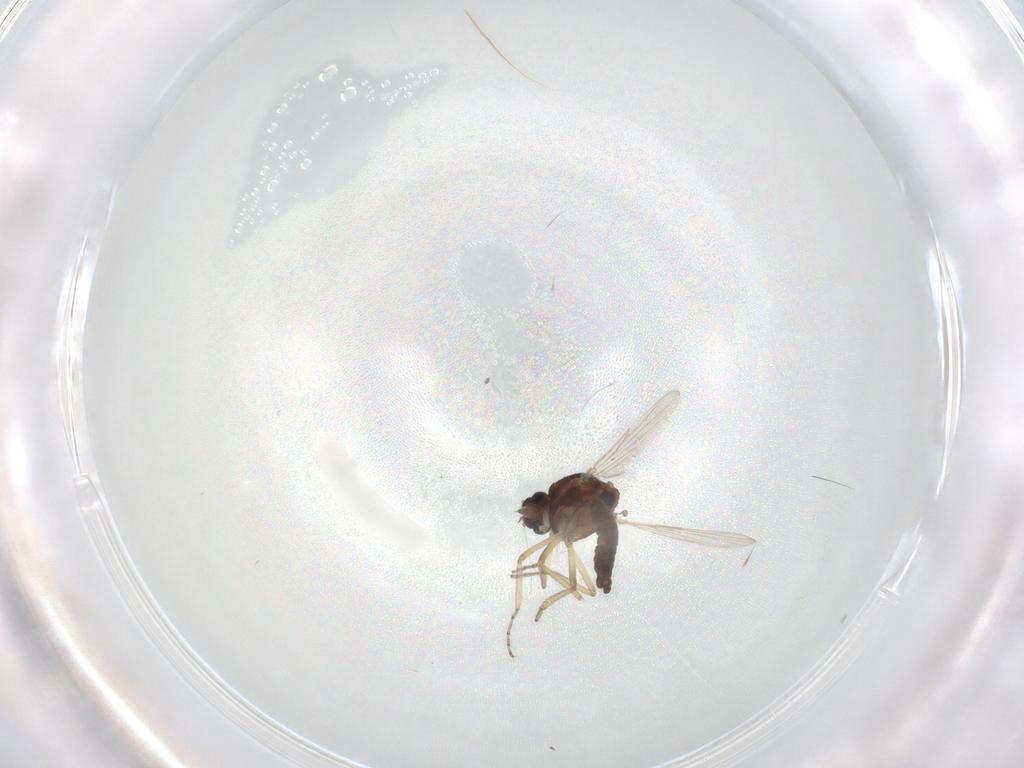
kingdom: Animalia
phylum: Arthropoda
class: Insecta
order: Diptera
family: Ceratopogonidae
